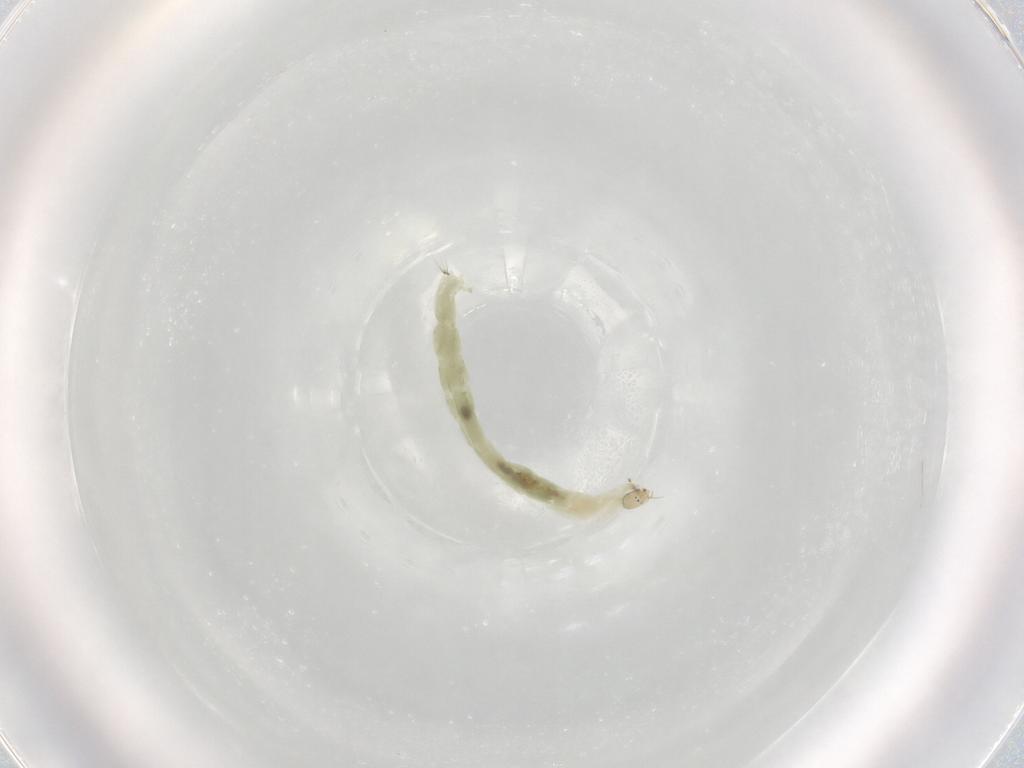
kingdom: Animalia
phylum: Arthropoda
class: Insecta
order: Diptera
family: Chironomidae
